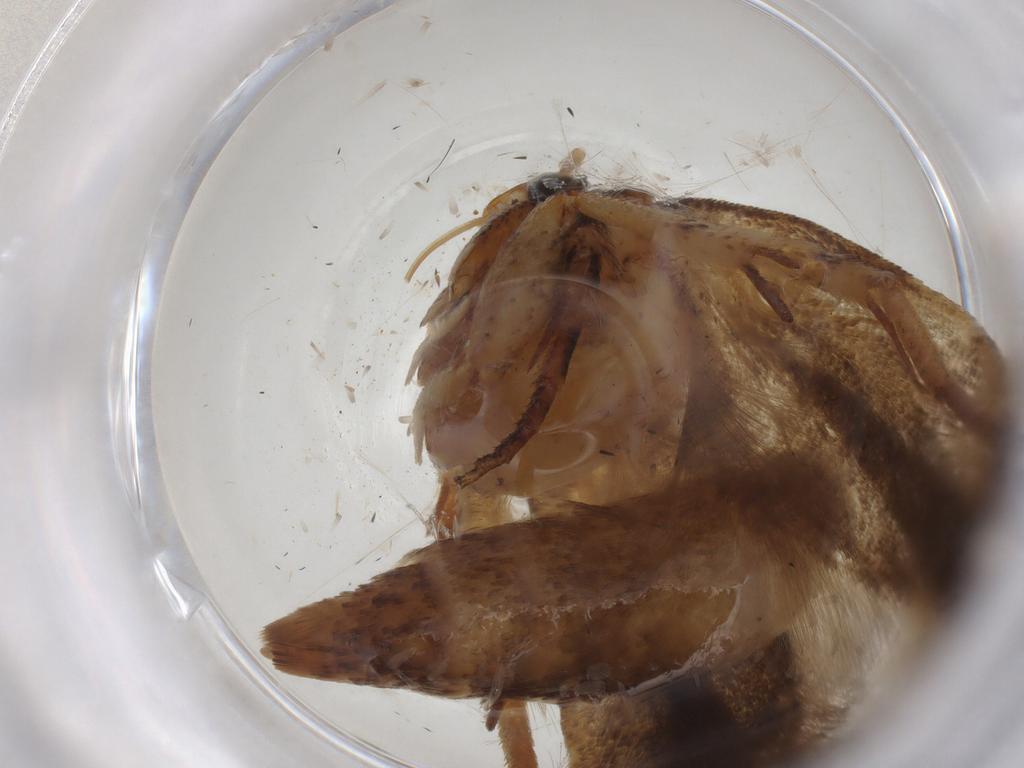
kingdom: Animalia
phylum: Arthropoda
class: Insecta
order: Lepidoptera
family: Gelechiidae
